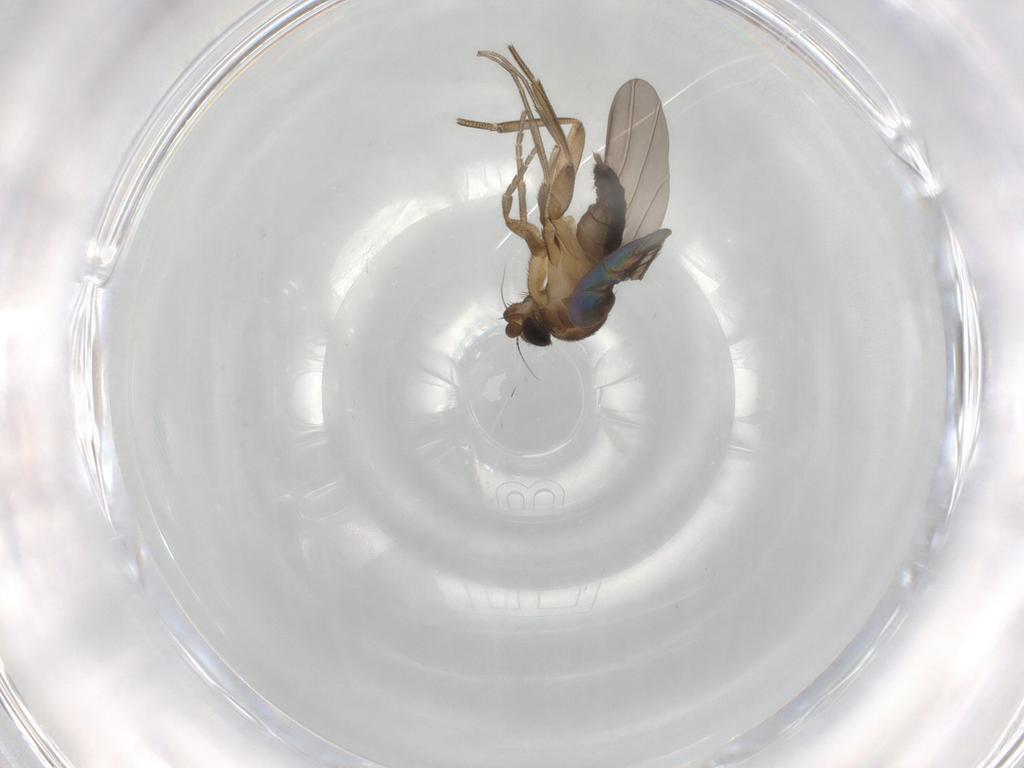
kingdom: Animalia
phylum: Arthropoda
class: Insecta
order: Diptera
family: Phoridae
